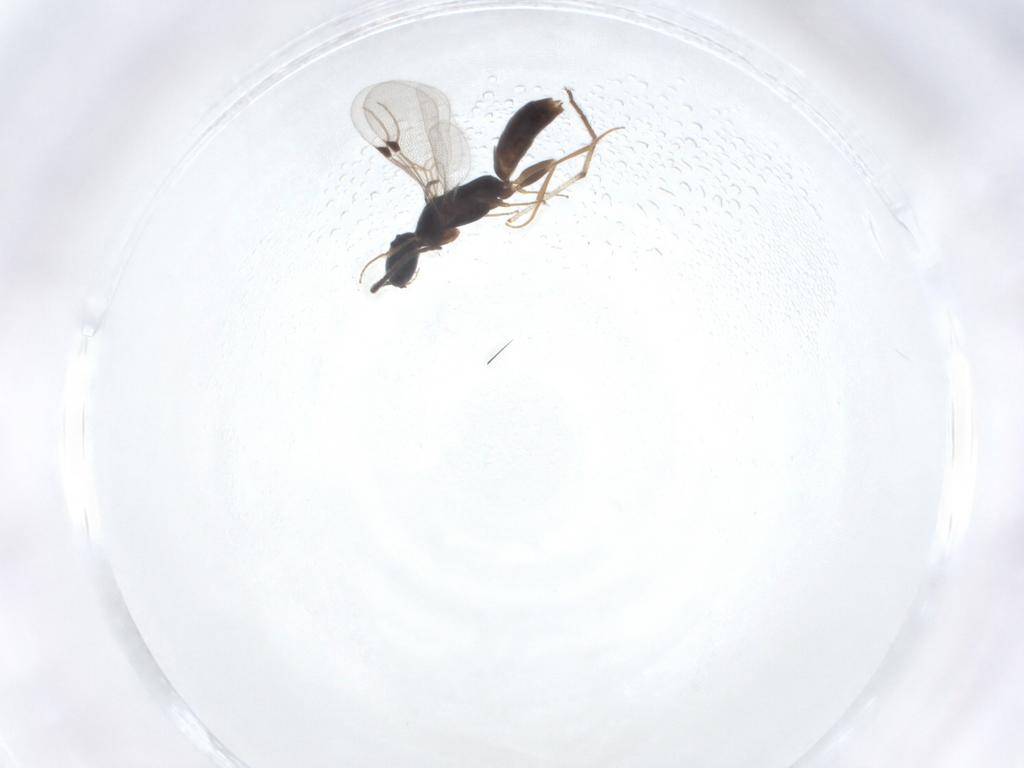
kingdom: Animalia
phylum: Arthropoda
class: Insecta
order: Hymenoptera
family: Bethylidae
